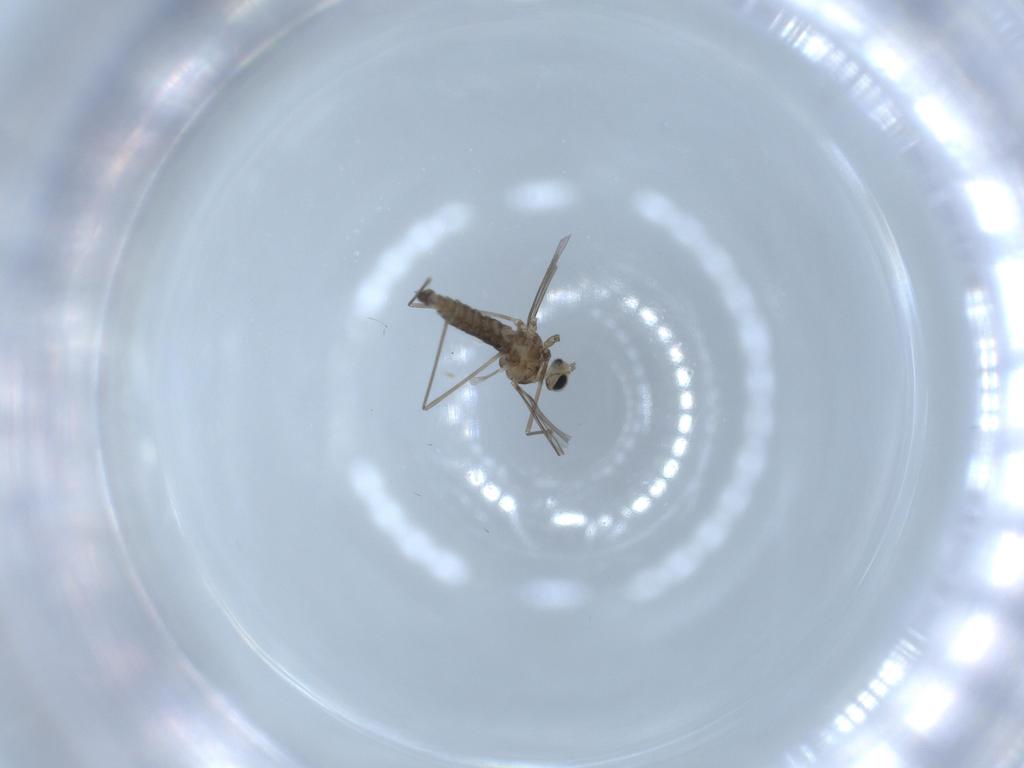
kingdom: Animalia
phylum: Arthropoda
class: Insecta
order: Diptera
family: Cecidomyiidae
